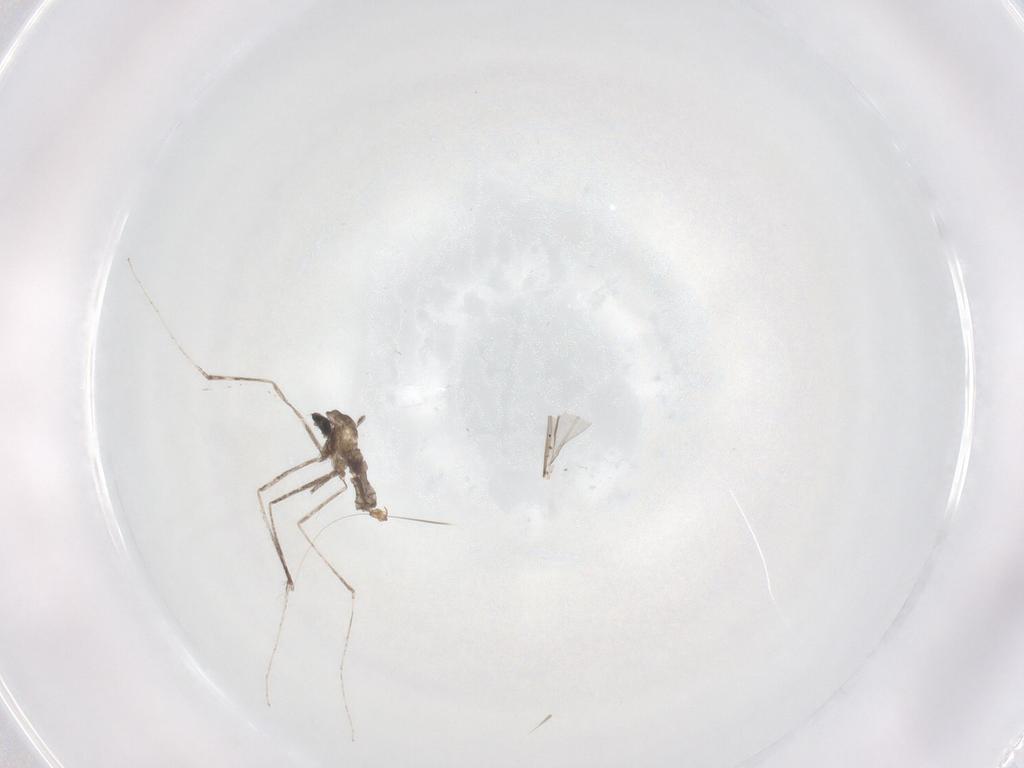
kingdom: Animalia
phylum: Arthropoda
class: Insecta
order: Diptera
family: Cecidomyiidae
